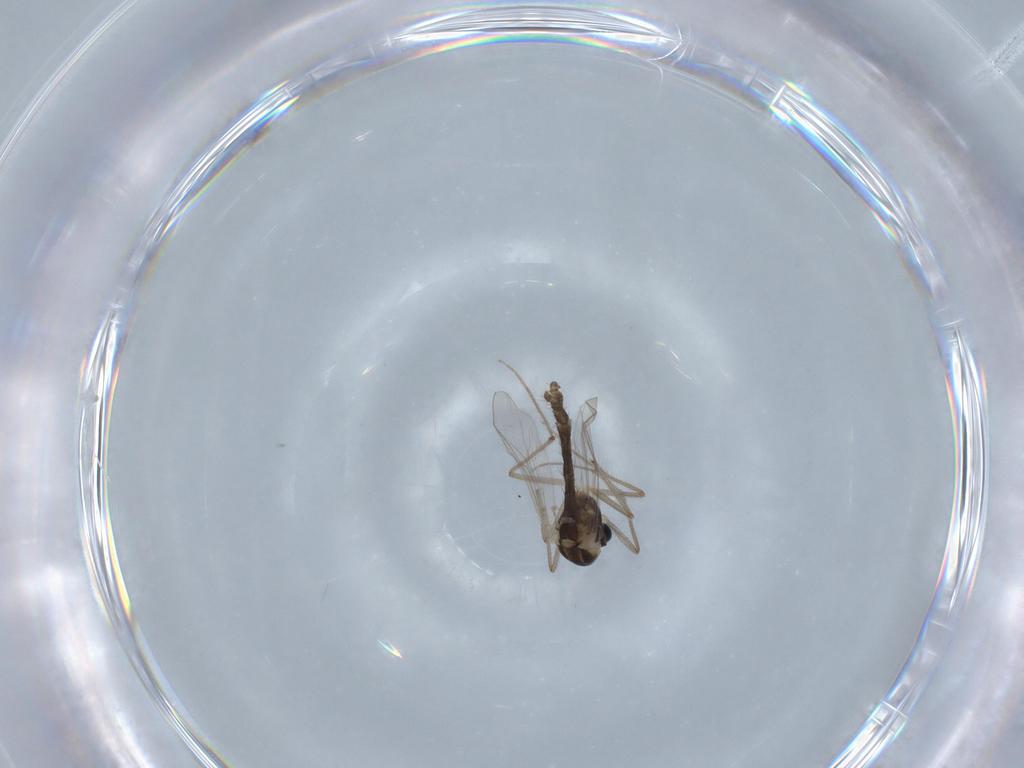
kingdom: Animalia
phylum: Arthropoda
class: Insecta
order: Diptera
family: Chironomidae
